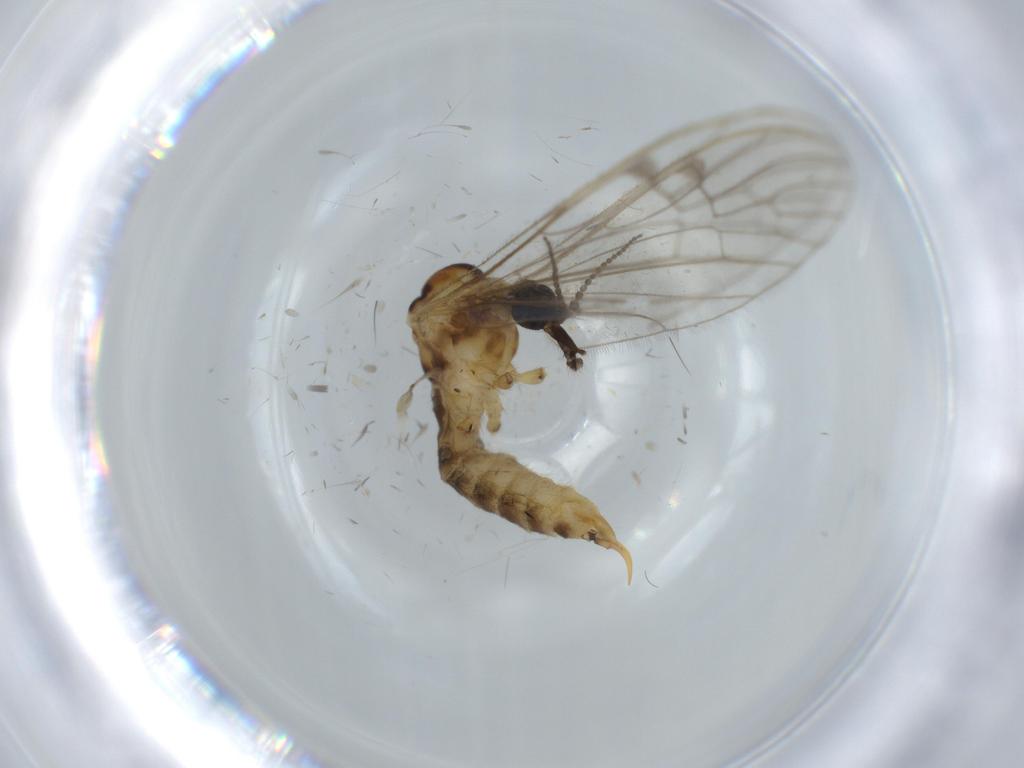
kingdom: Animalia
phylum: Arthropoda
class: Insecta
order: Diptera
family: Limoniidae
